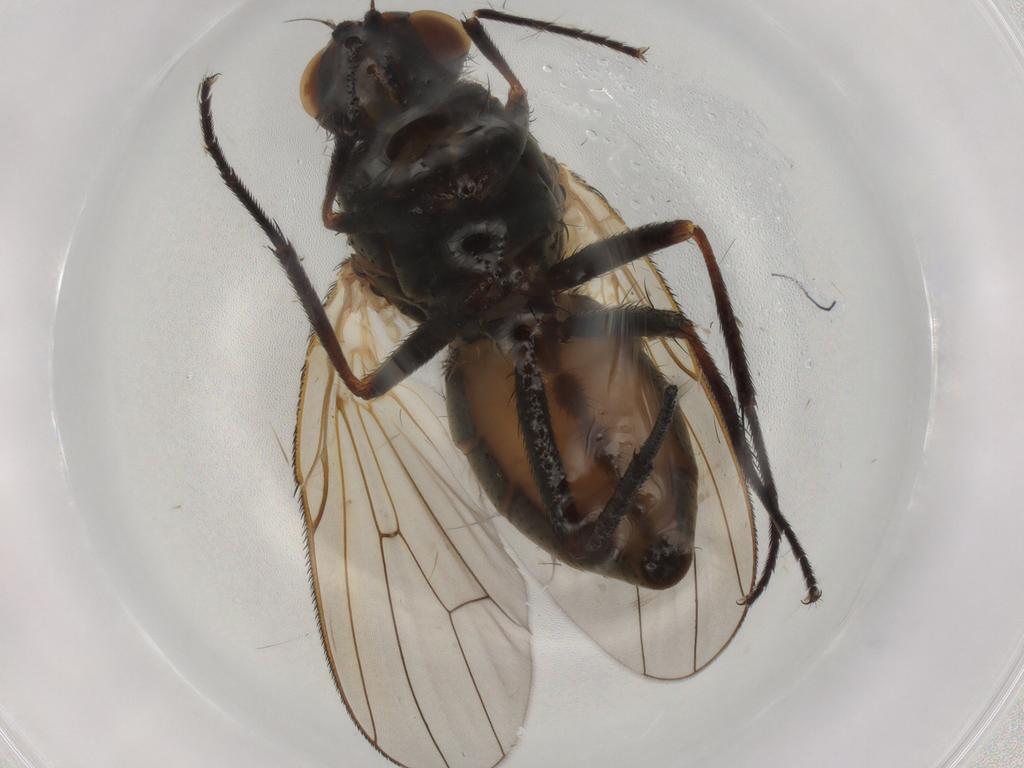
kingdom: Animalia
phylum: Arthropoda
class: Insecta
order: Diptera
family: Anthomyiidae
